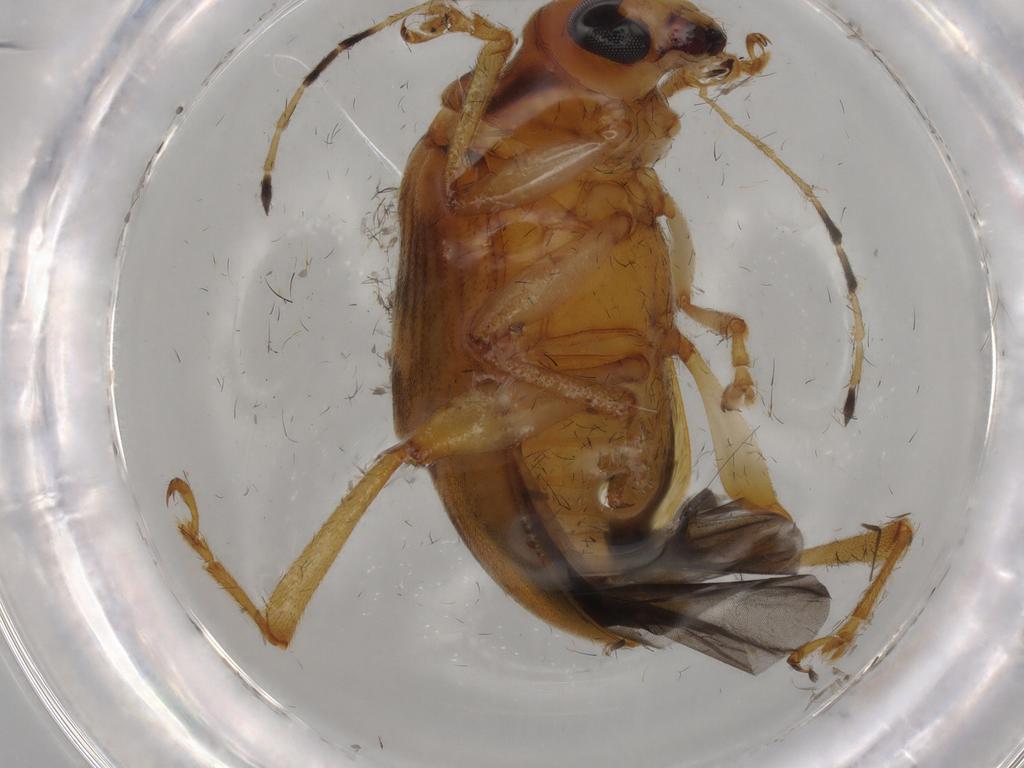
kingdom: Animalia
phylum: Arthropoda
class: Insecta
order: Coleoptera
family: Chrysomelidae
